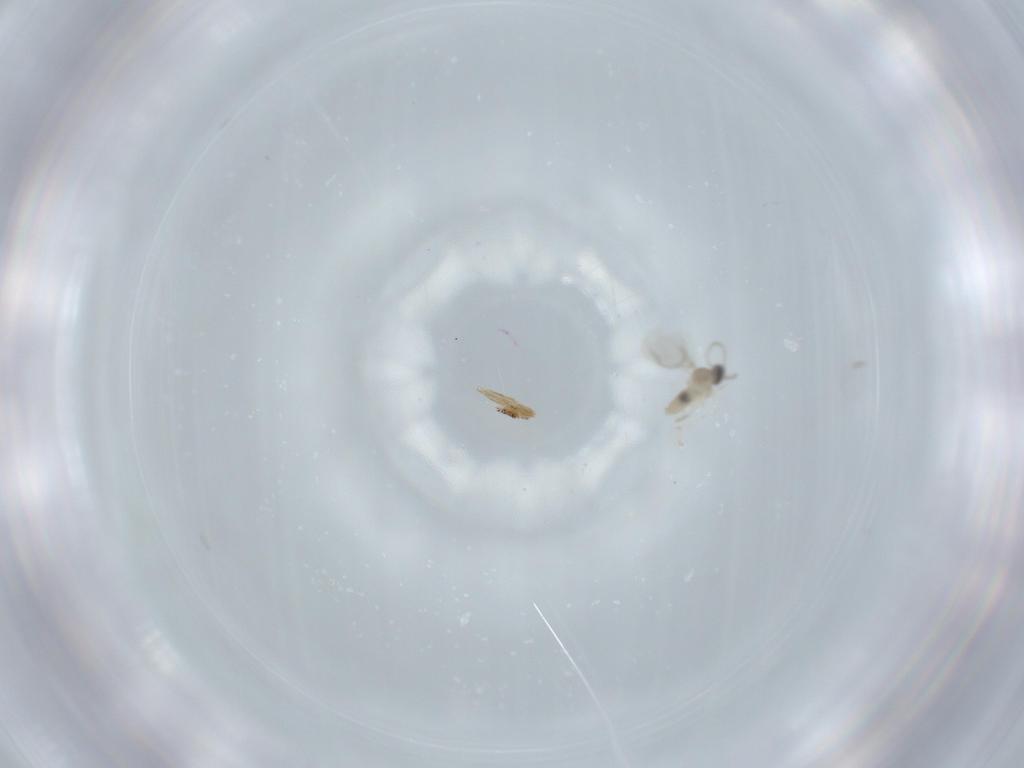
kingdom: Animalia
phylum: Arthropoda
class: Insecta
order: Diptera
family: Cecidomyiidae
